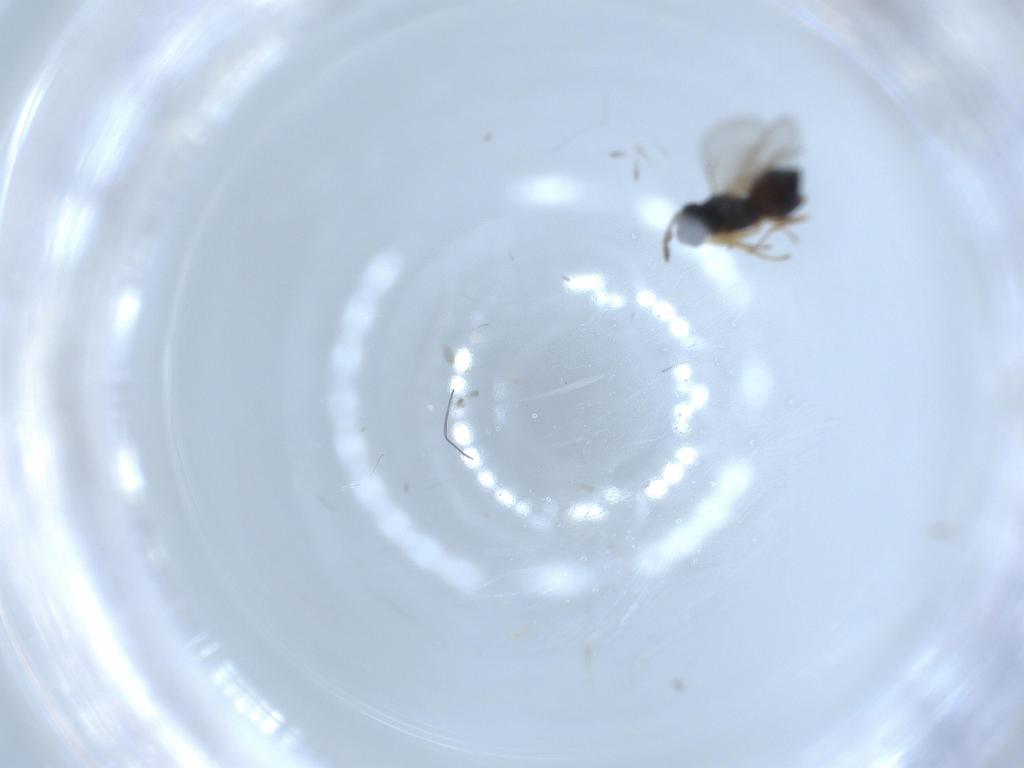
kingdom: Animalia
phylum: Arthropoda
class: Insecta
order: Hymenoptera
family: Eulophidae
